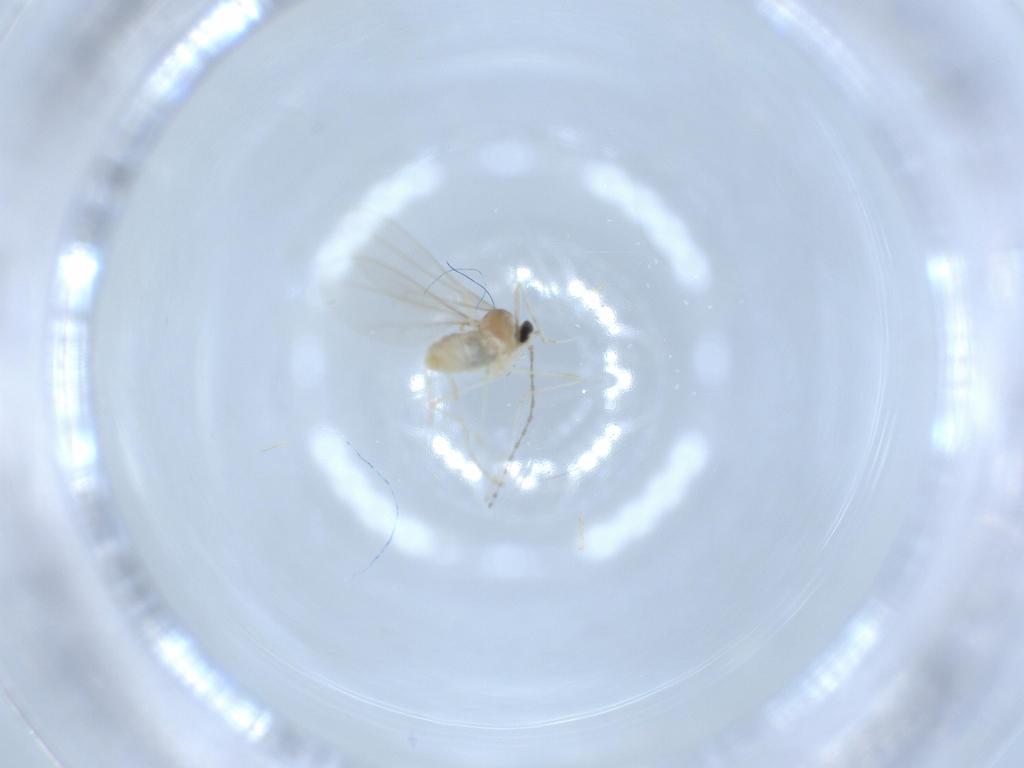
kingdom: Animalia
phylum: Arthropoda
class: Insecta
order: Diptera
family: Cecidomyiidae
